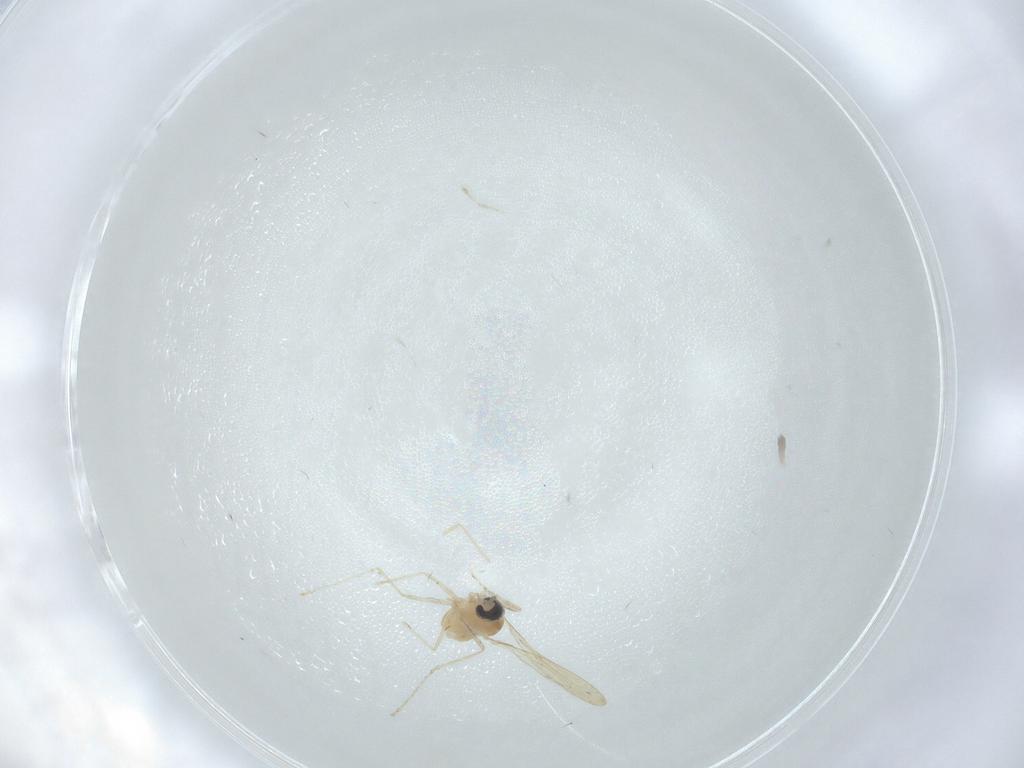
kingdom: Animalia
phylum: Arthropoda
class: Insecta
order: Diptera
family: Cecidomyiidae
